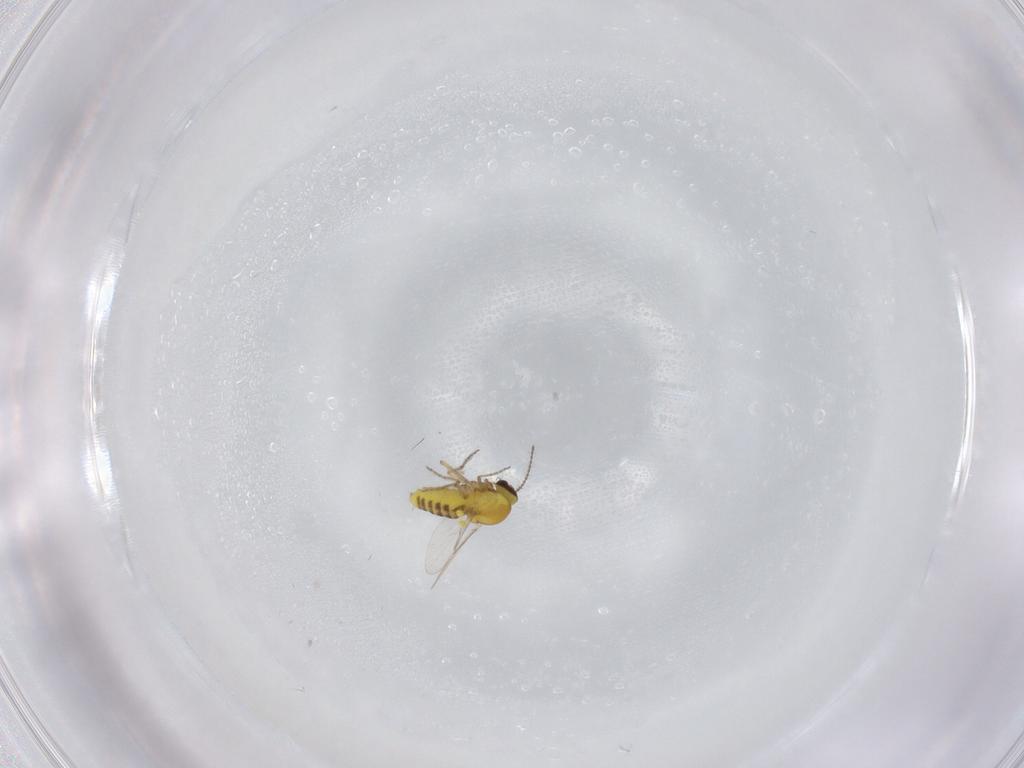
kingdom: Animalia
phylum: Arthropoda
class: Insecta
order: Diptera
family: Ceratopogonidae
